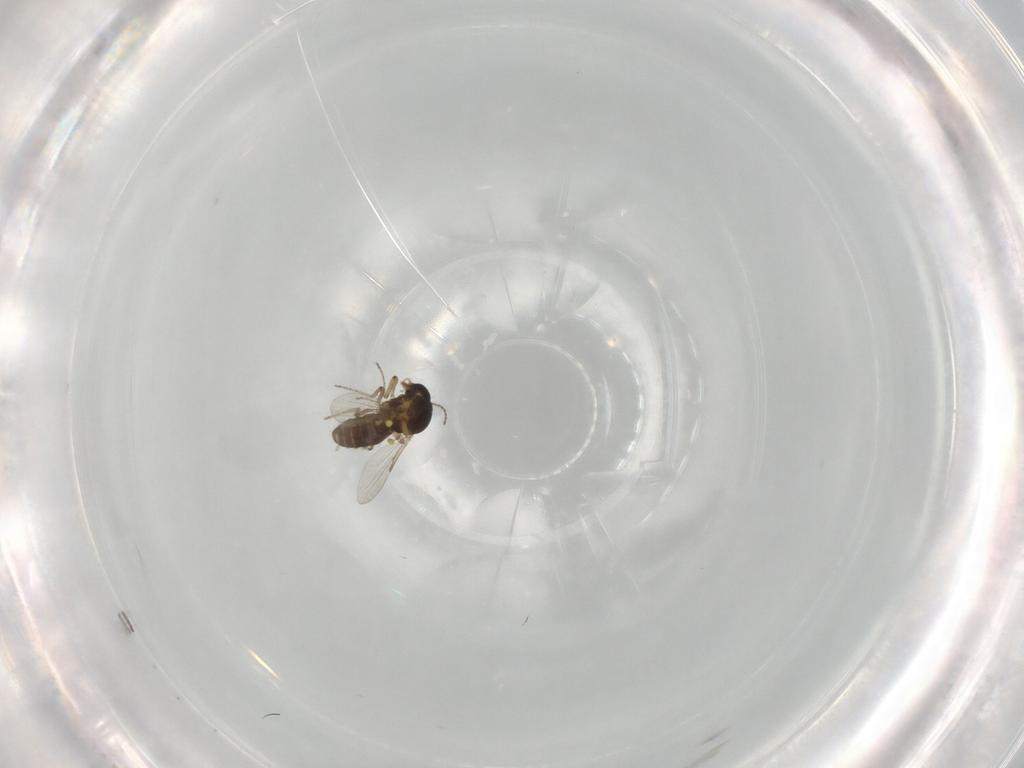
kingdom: Animalia
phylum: Arthropoda
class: Insecta
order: Diptera
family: Ceratopogonidae
